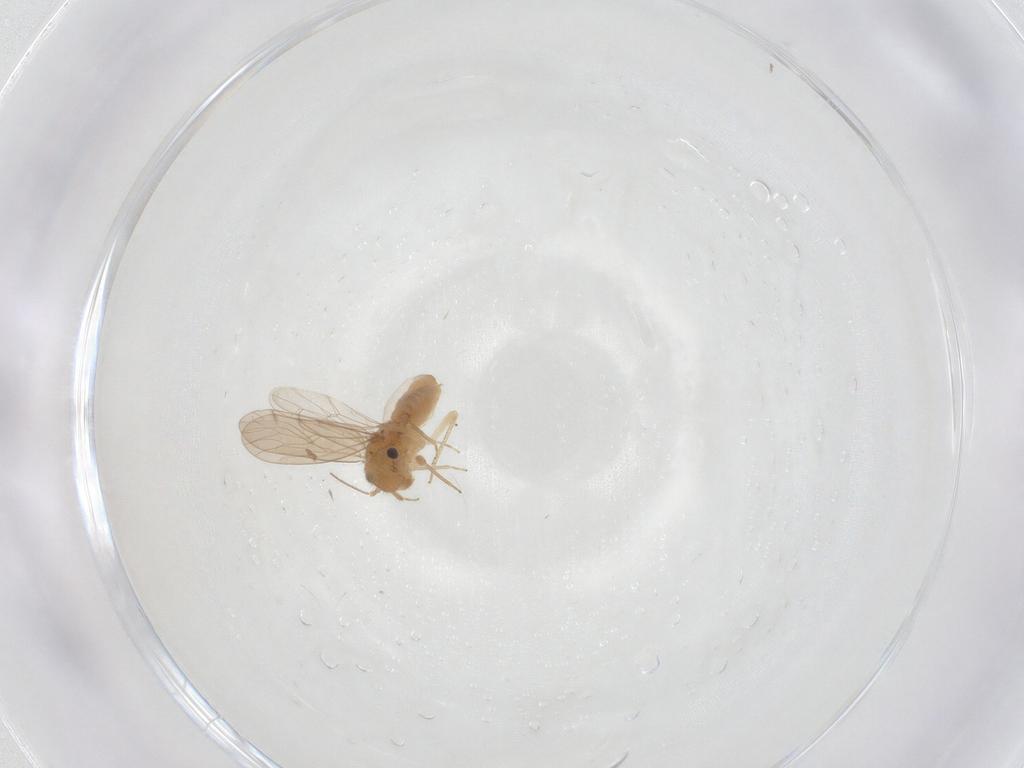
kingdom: Animalia
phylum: Arthropoda
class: Insecta
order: Psocodea
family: Ectopsocidae
